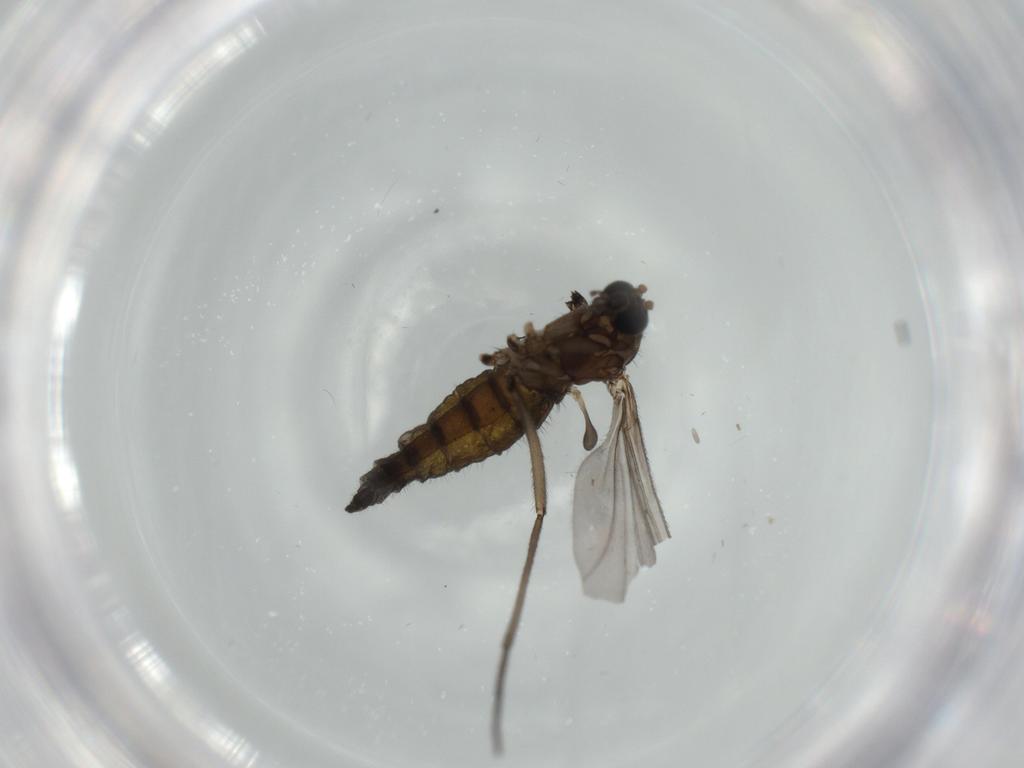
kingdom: Animalia
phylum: Arthropoda
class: Insecta
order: Diptera
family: Sciaridae
